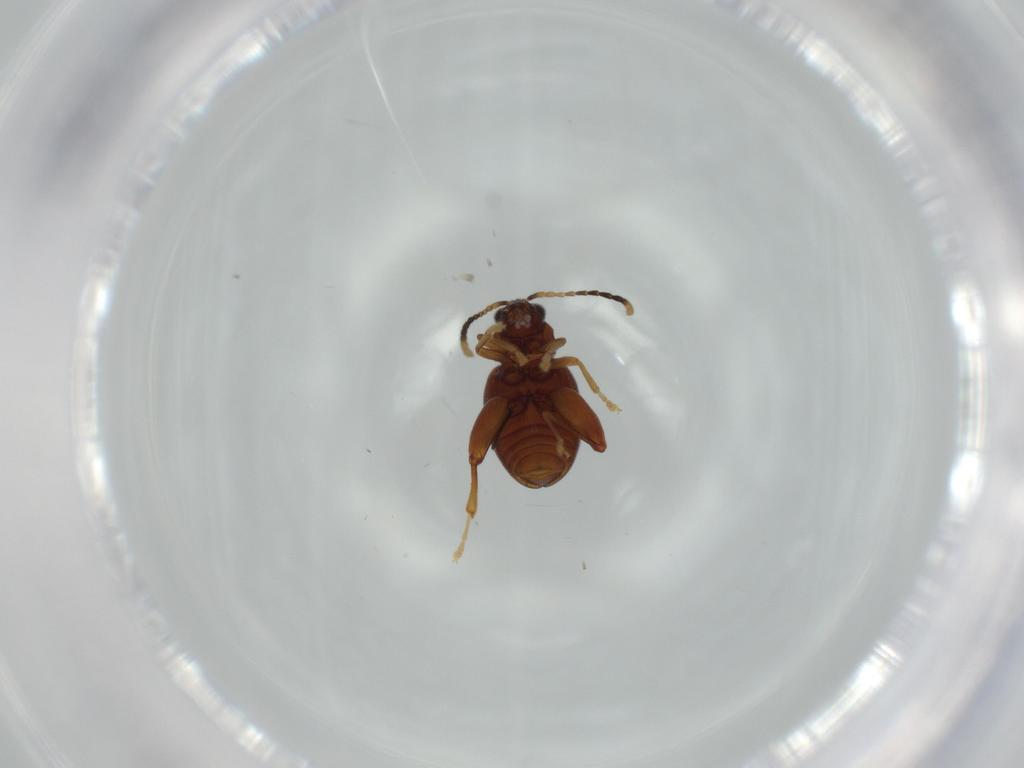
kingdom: Animalia
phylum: Arthropoda
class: Insecta
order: Coleoptera
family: Chrysomelidae
